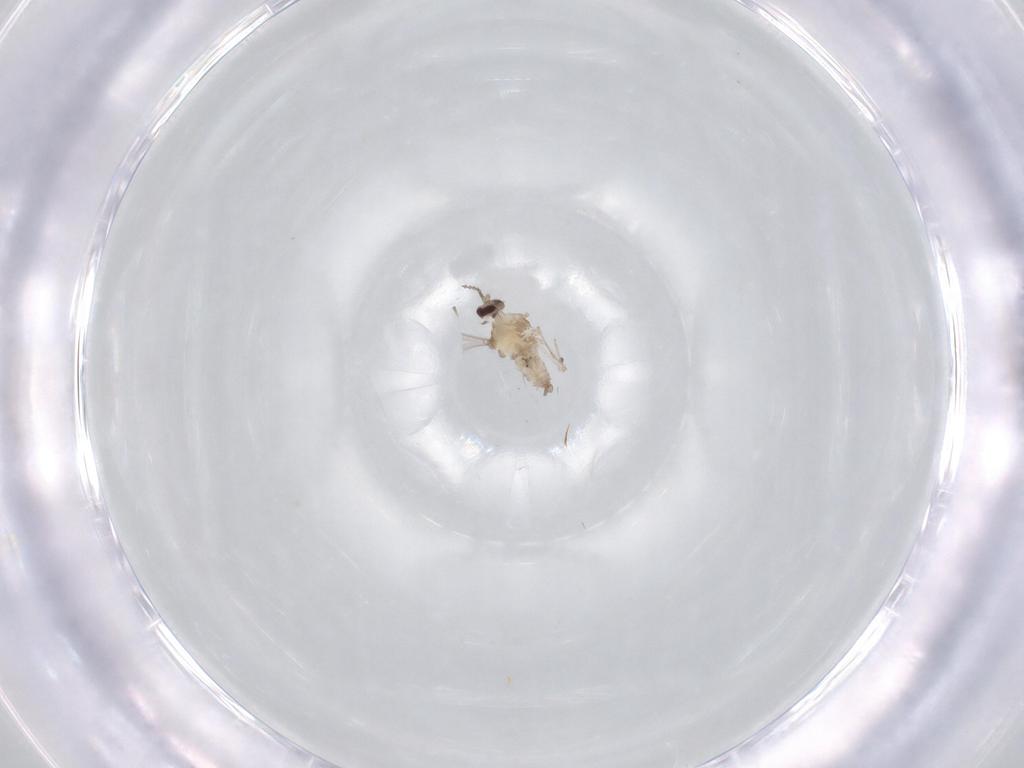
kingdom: Animalia
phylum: Arthropoda
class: Insecta
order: Diptera
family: Cecidomyiidae
